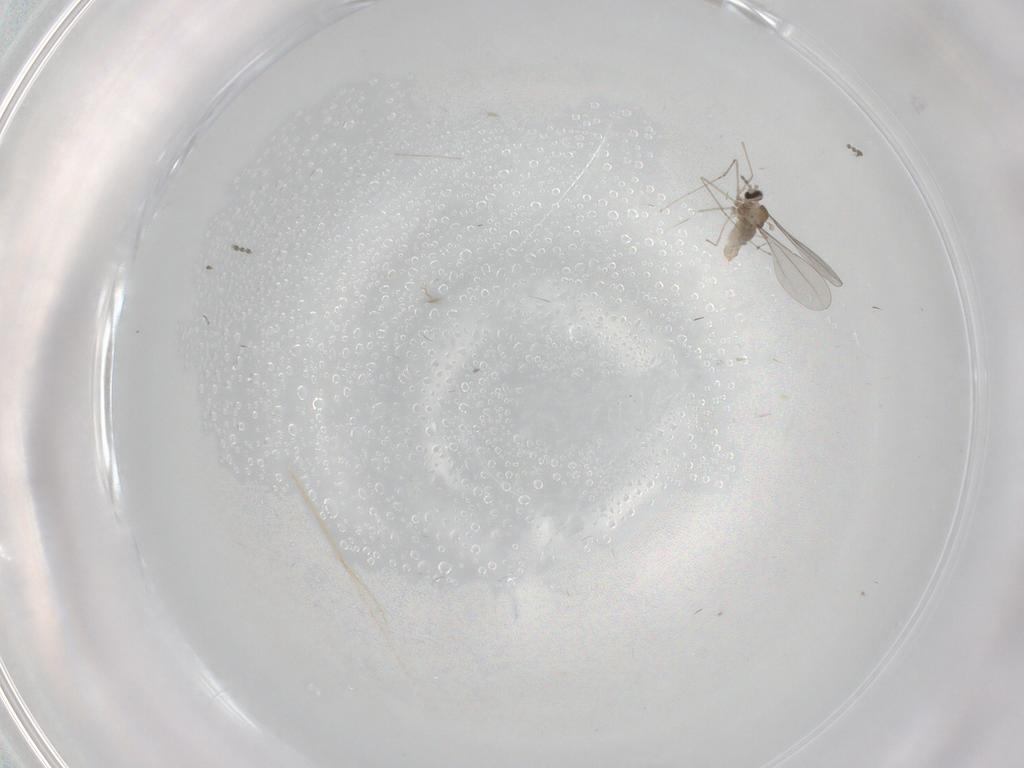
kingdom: Animalia
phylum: Arthropoda
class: Insecta
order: Diptera
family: Cecidomyiidae
